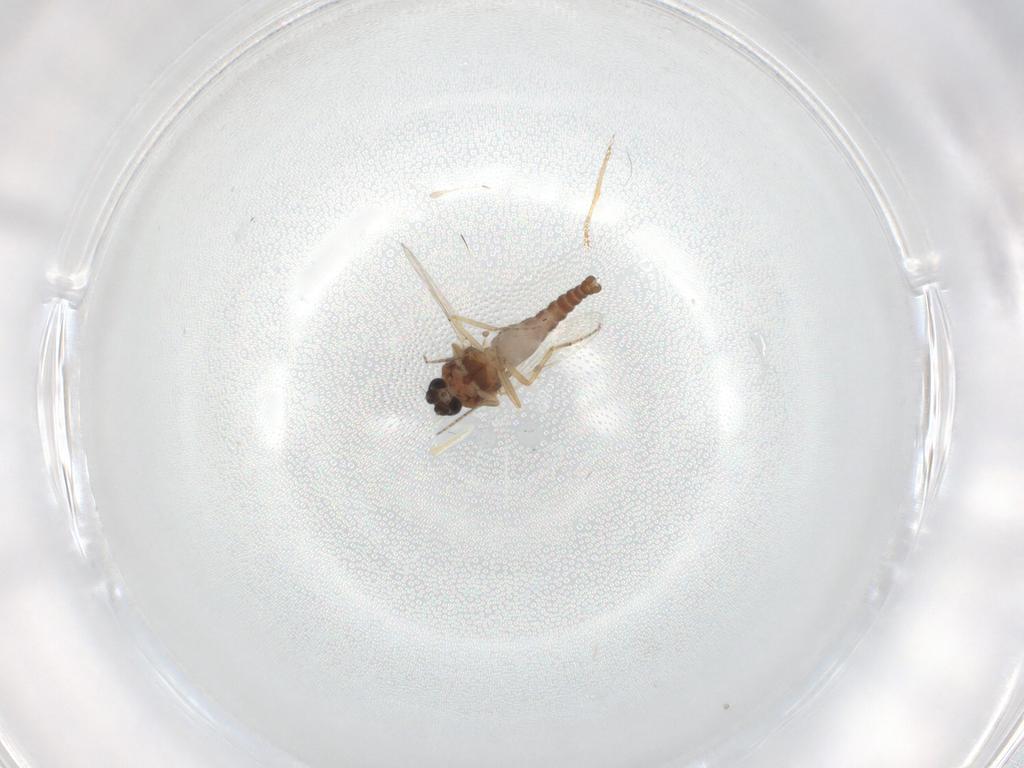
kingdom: Animalia
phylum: Arthropoda
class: Insecta
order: Diptera
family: Ceratopogonidae
